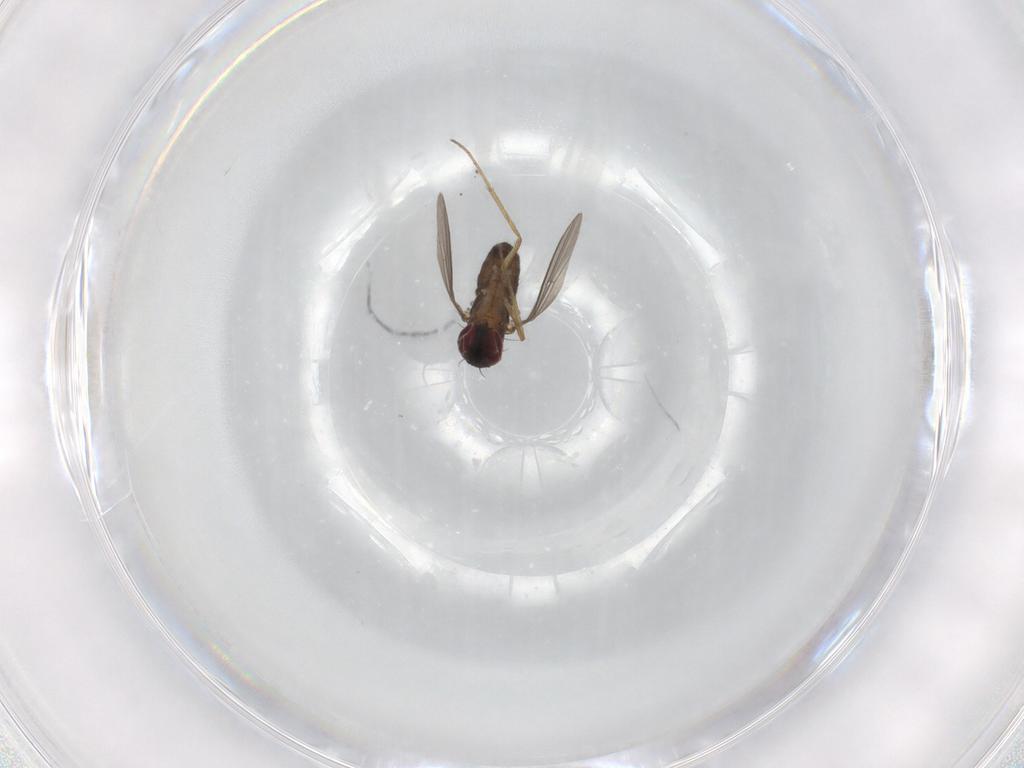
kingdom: Animalia
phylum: Arthropoda
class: Insecta
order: Diptera
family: Dolichopodidae
